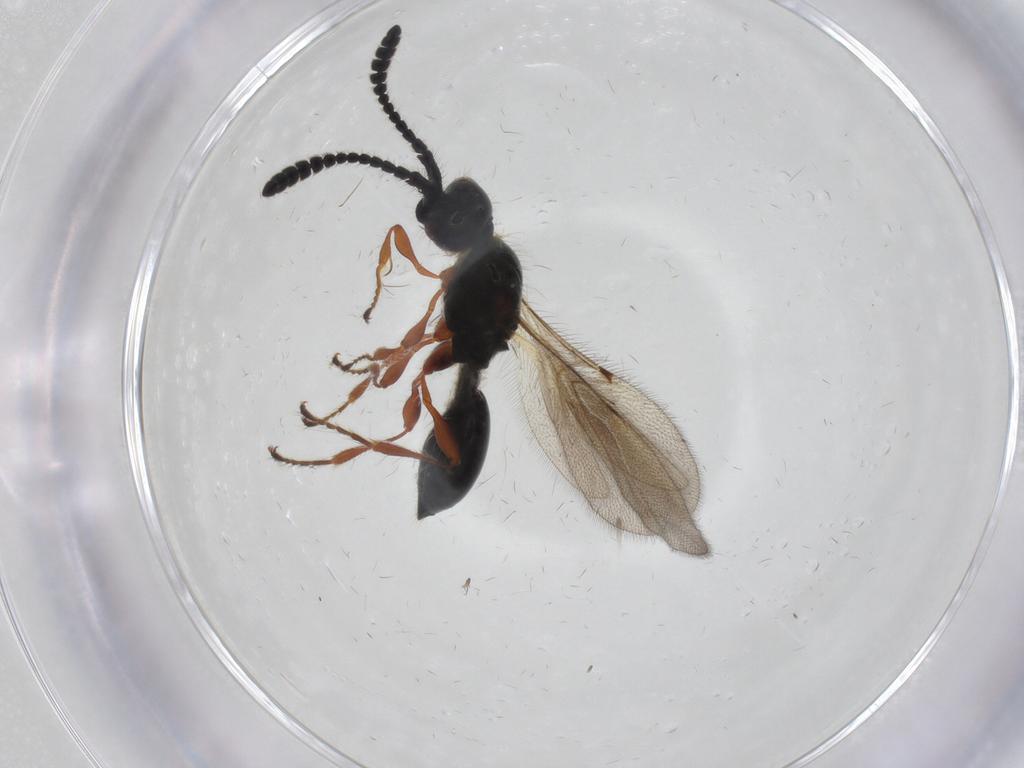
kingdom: Animalia
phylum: Arthropoda
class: Insecta
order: Hymenoptera
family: Diapriidae
